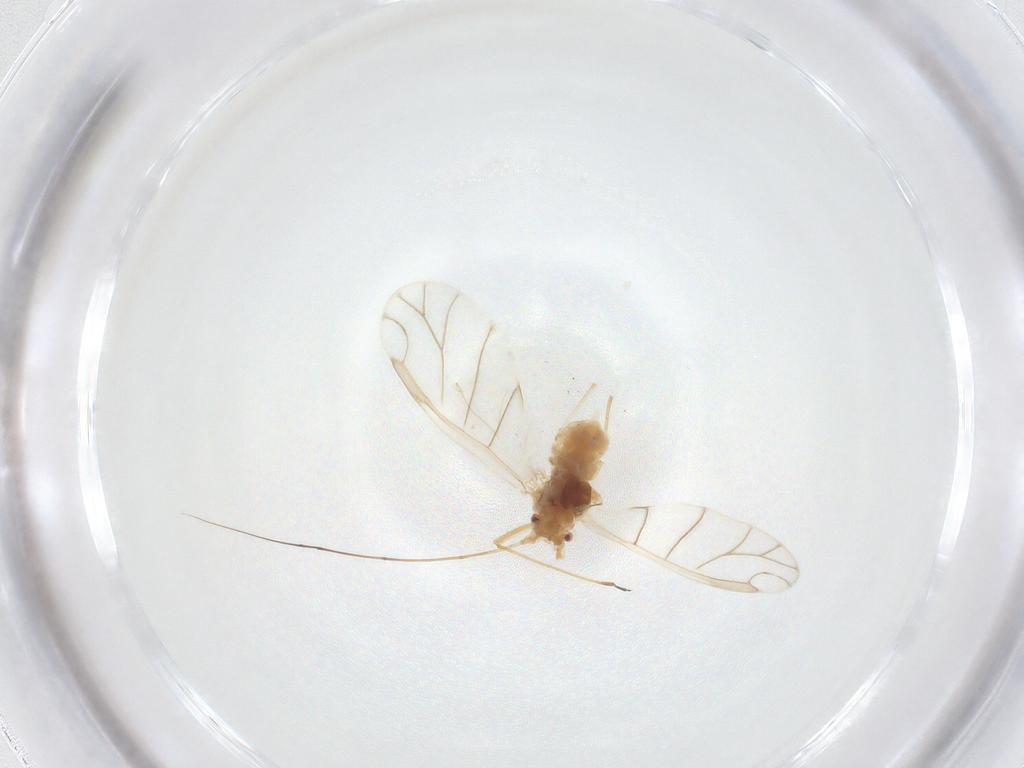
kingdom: Animalia
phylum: Arthropoda
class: Insecta
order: Hemiptera
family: Aphididae
